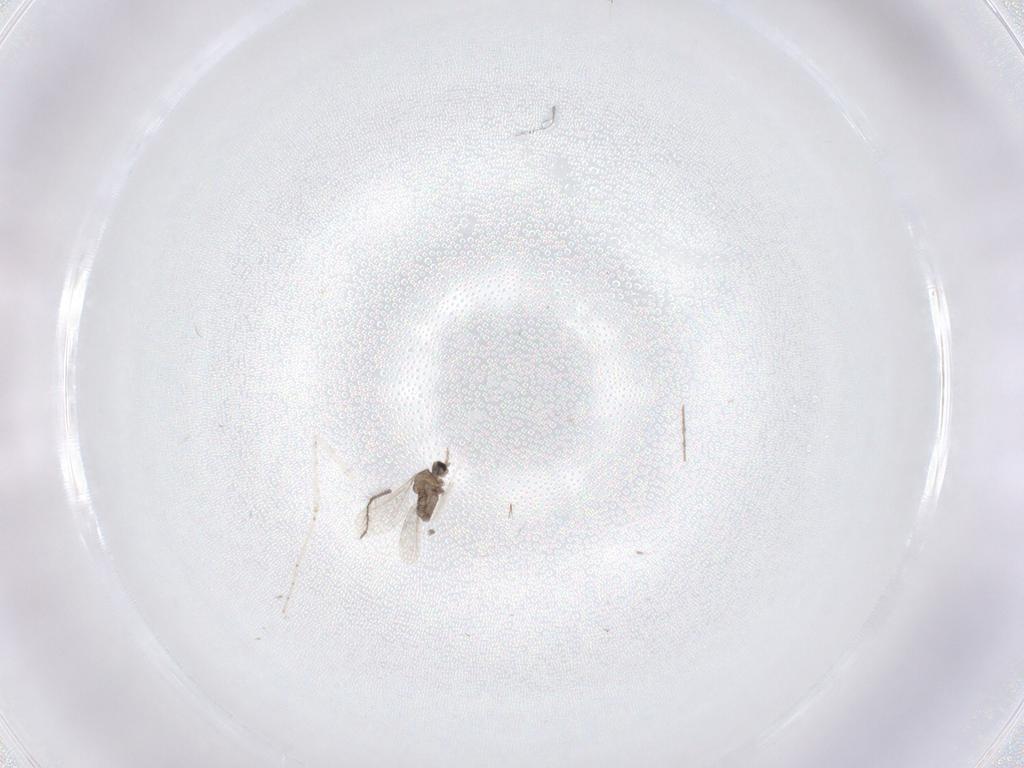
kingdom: Animalia
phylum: Arthropoda
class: Insecta
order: Diptera
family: Cecidomyiidae
